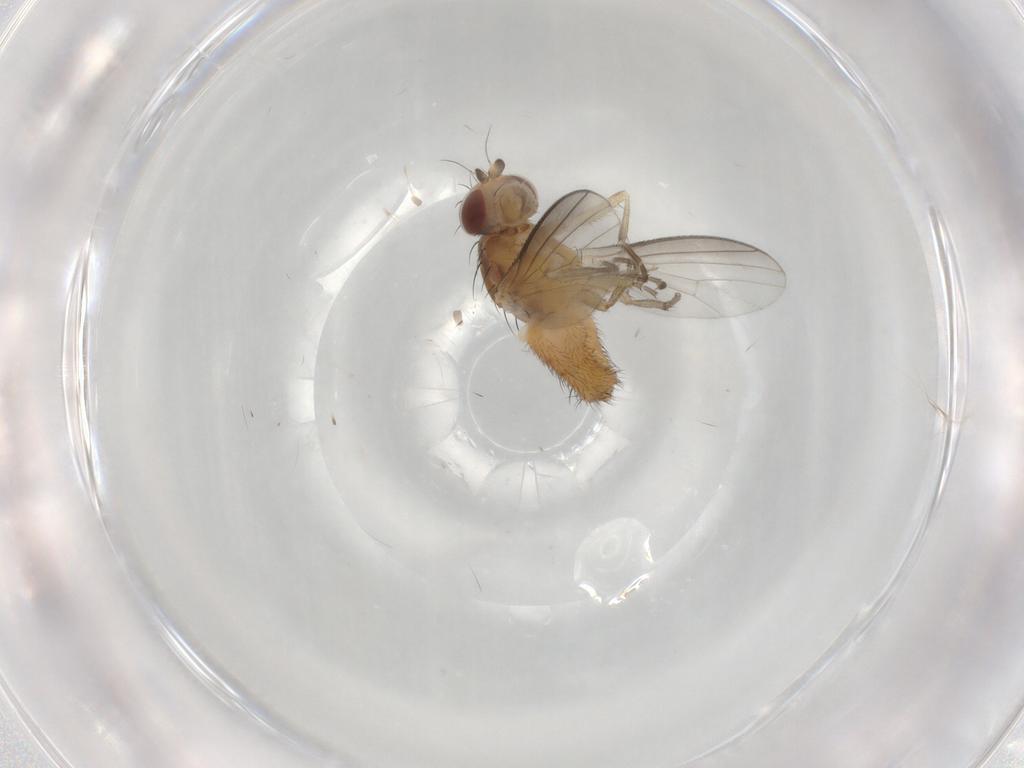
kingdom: Animalia
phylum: Arthropoda
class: Insecta
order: Diptera
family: Heleomyzidae
